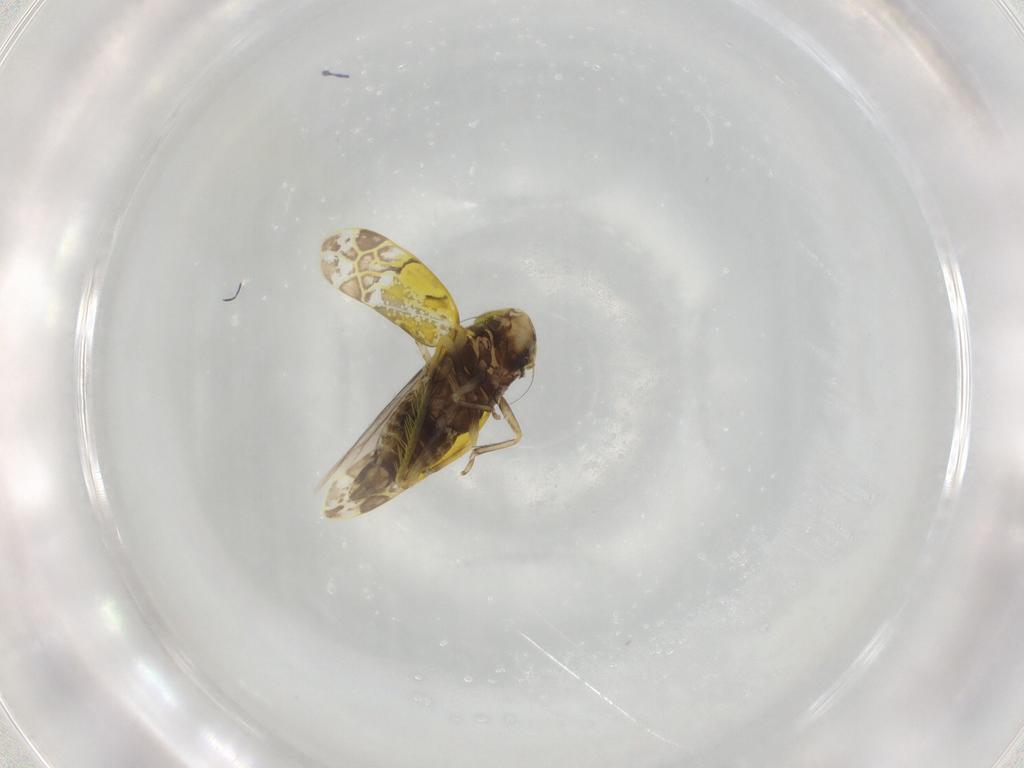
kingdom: Animalia
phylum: Arthropoda
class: Insecta
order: Hemiptera
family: Cicadellidae
